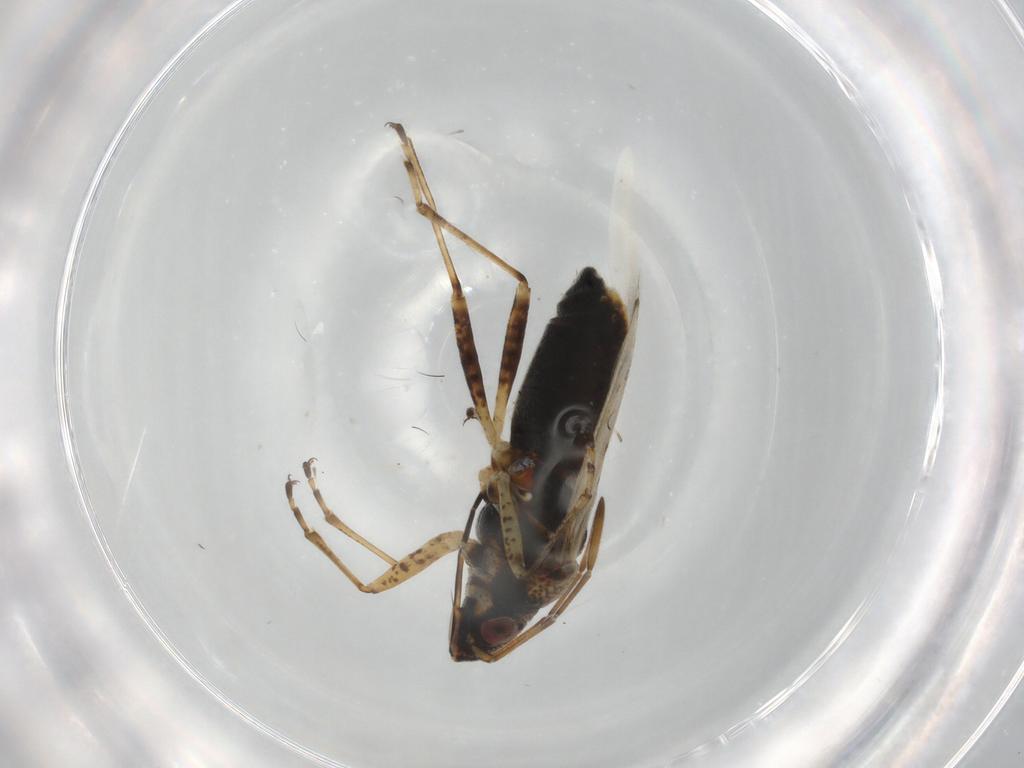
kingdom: Animalia
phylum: Arthropoda
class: Insecta
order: Hemiptera
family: Lygaeidae
